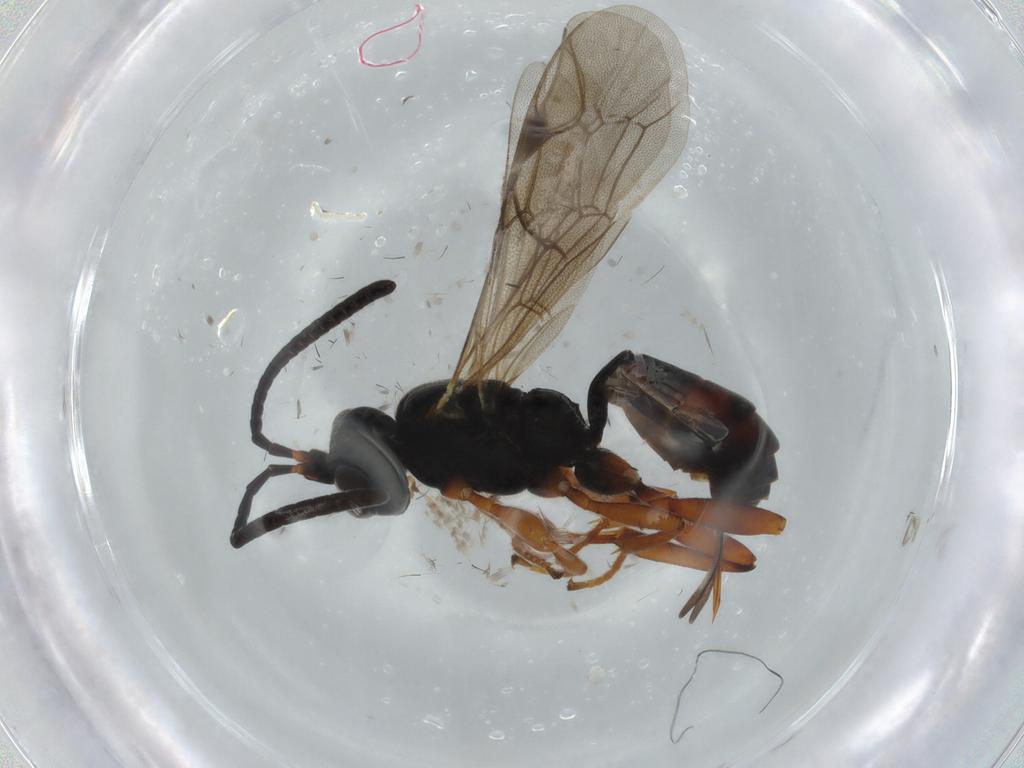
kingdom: Animalia
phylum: Arthropoda
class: Insecta
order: Hymenoptera
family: Ichneumonidae
